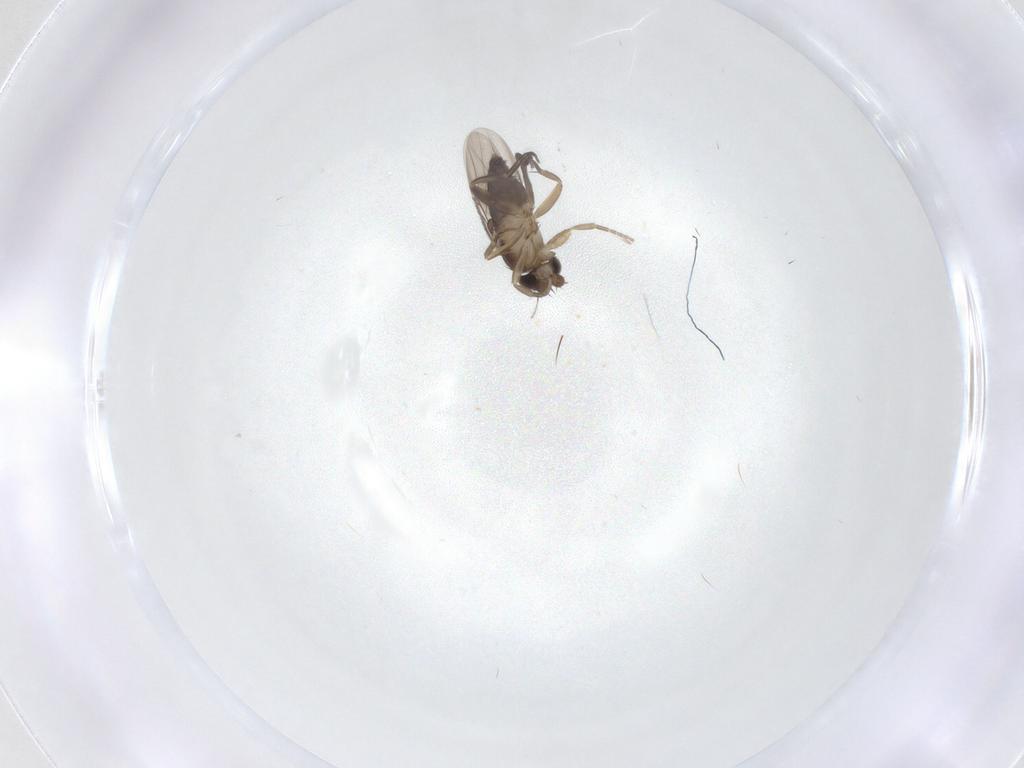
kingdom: Animalia
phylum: Arthropoda
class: Insecta
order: Diptera
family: Phoridae
